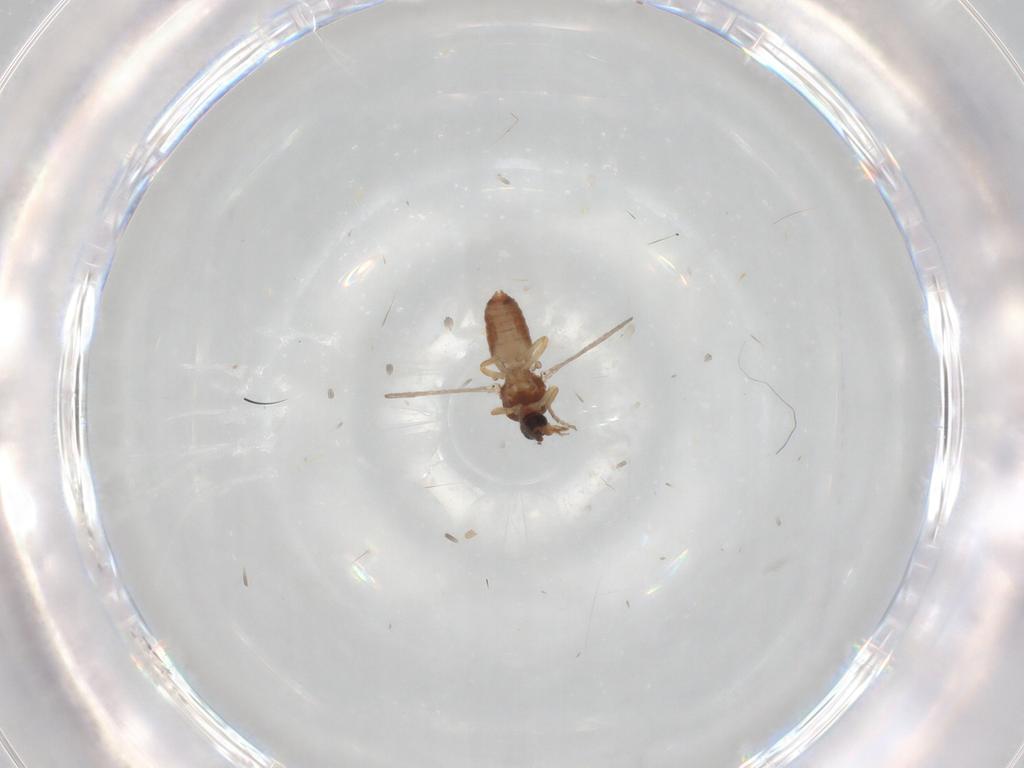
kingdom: Animalia
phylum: Arthropoda
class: Insecta
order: Diptera
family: Ceratopogonidae
